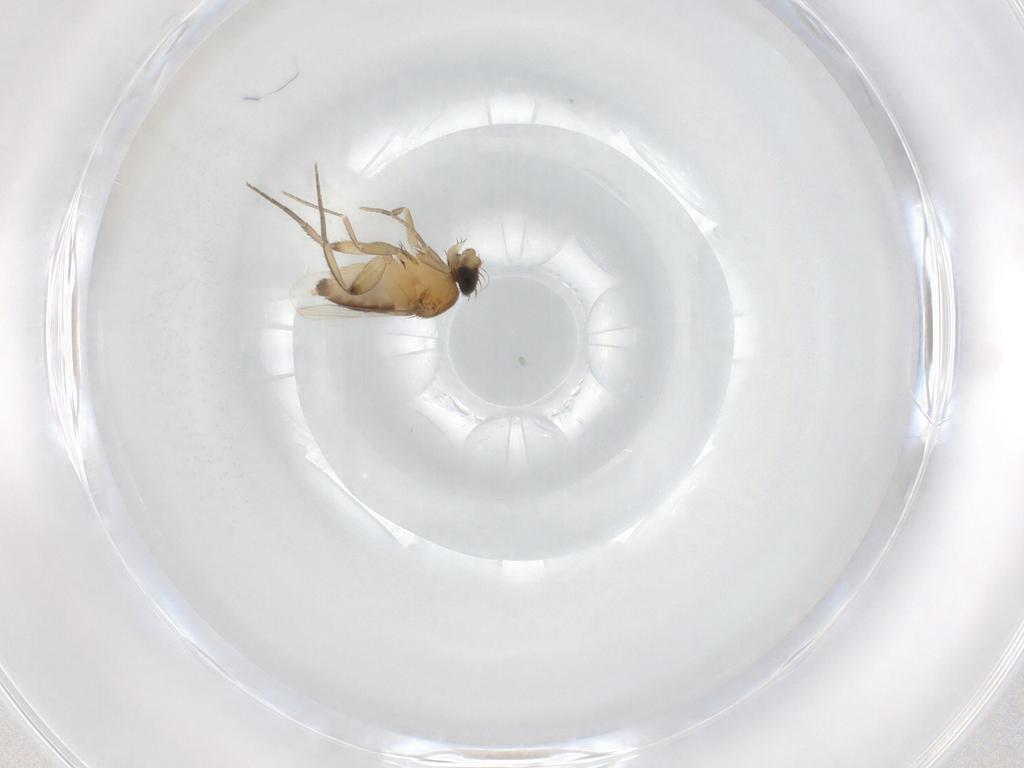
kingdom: Animalia
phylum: Arthropoda
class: Insecta
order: Diptera
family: Phoridae
